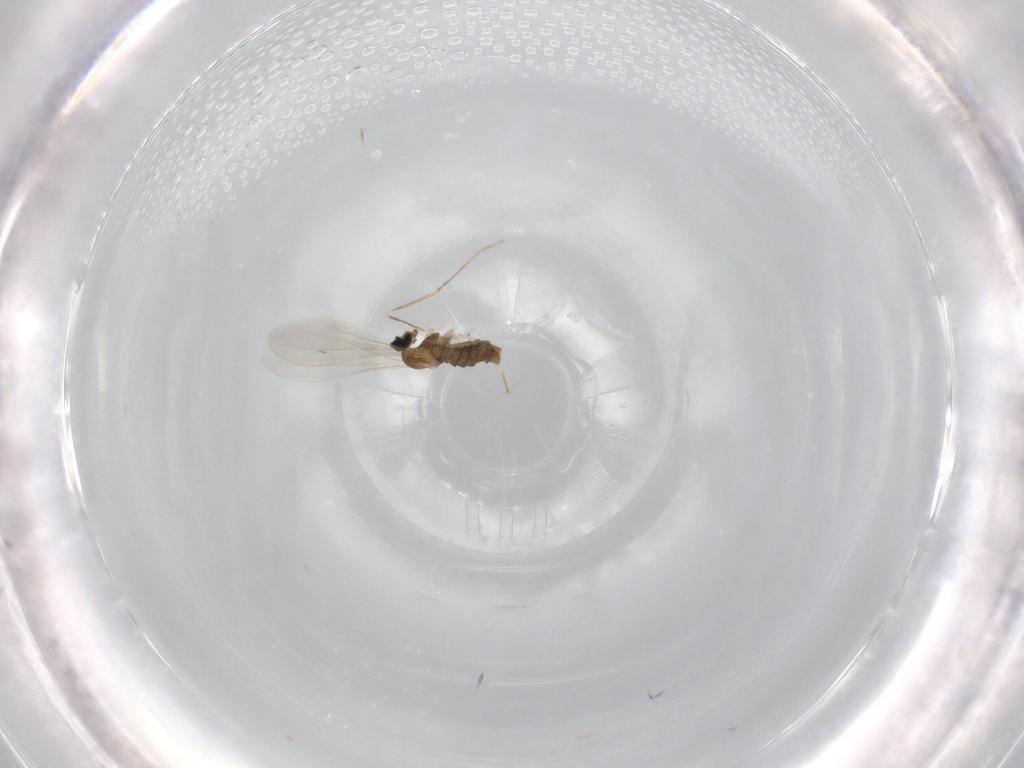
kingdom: Animalia
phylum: Arthropoda
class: Insecta
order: Diptera
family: Cecidomyiidae
